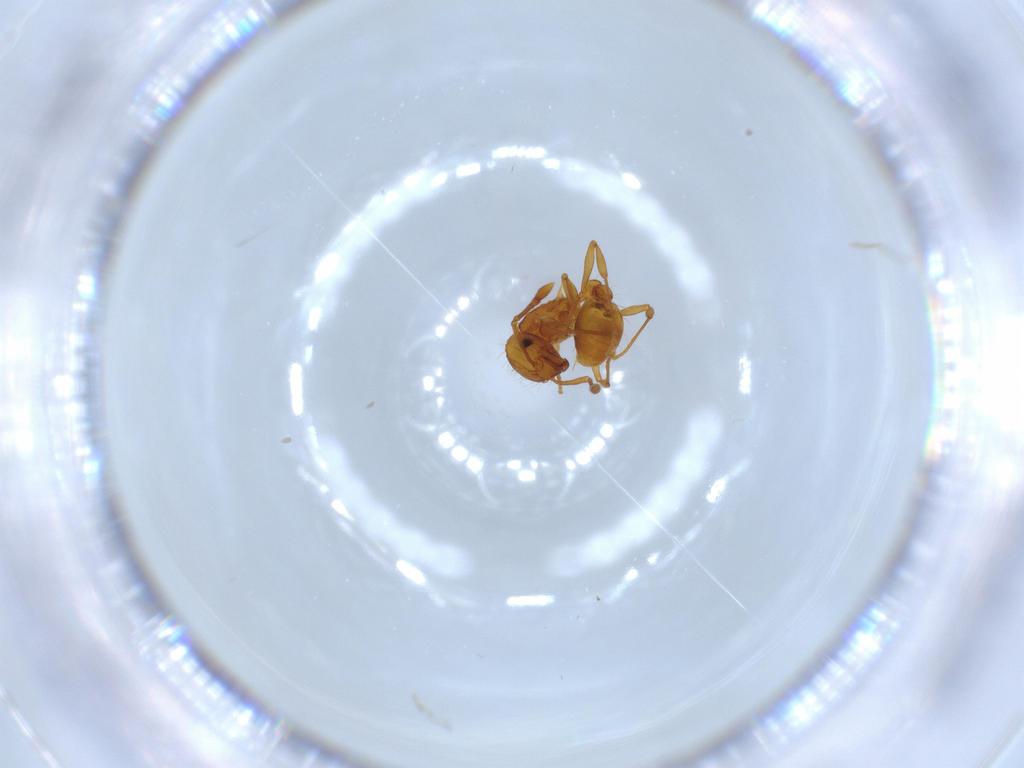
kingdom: Animalia
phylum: Arthropoda
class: Insecta
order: Hymenoptera
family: Formicidae
